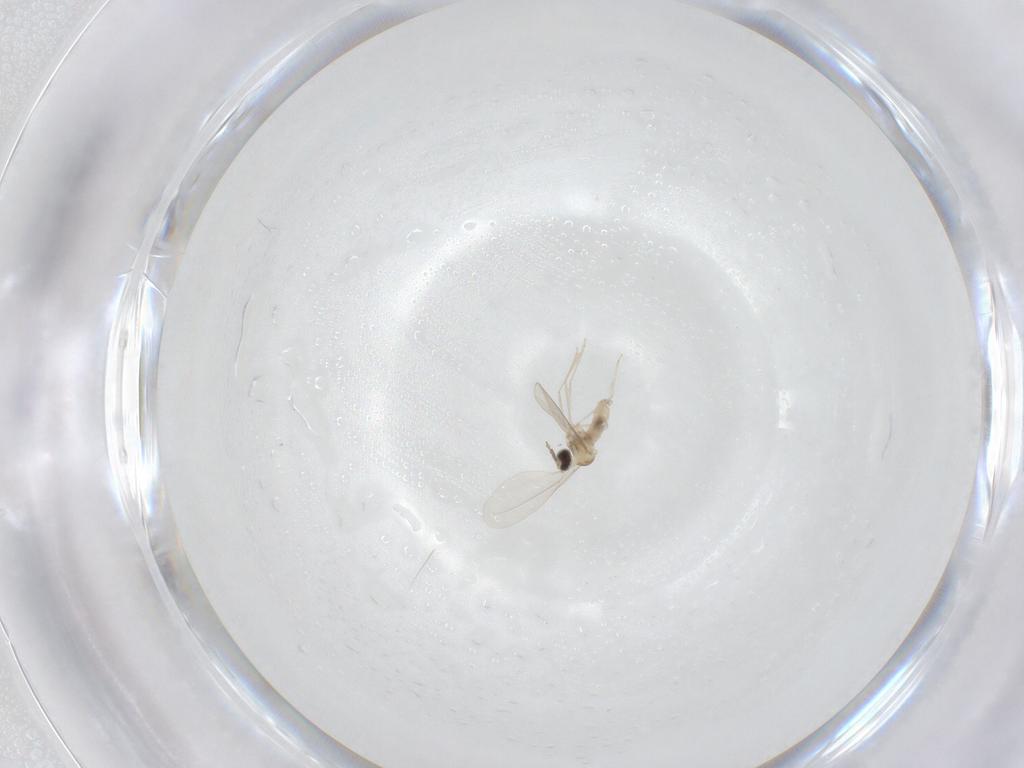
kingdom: Animalia
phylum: Arthropoda
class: Insecta
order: Diptera
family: Cecidomyiidae
